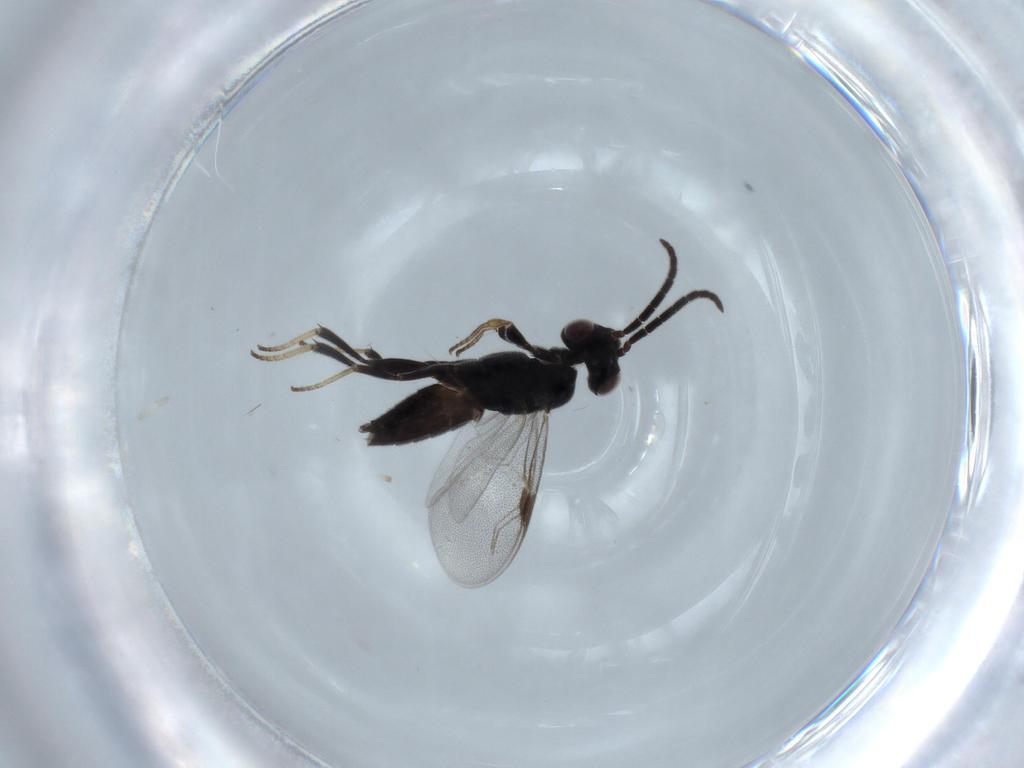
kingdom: Animalia
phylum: Arthropoda
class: Insecta
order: Hymenoptera
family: Dryinidae
